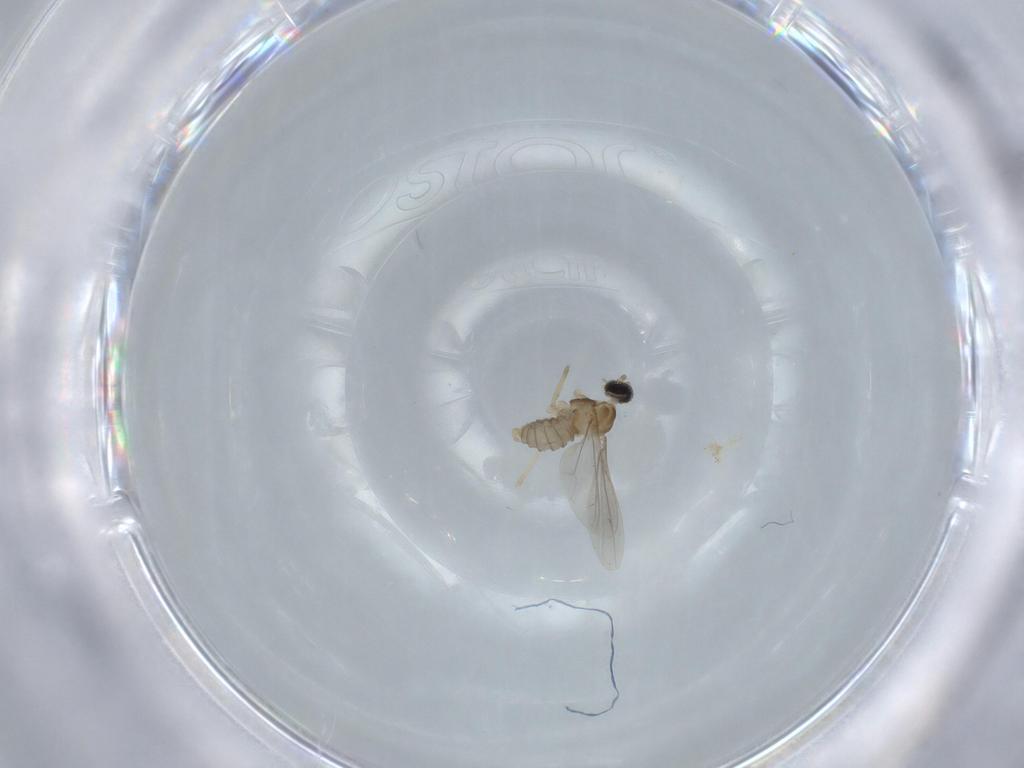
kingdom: Animalia
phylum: Arthropoda
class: Insecta
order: Diptera
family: Cecidomyiidae
